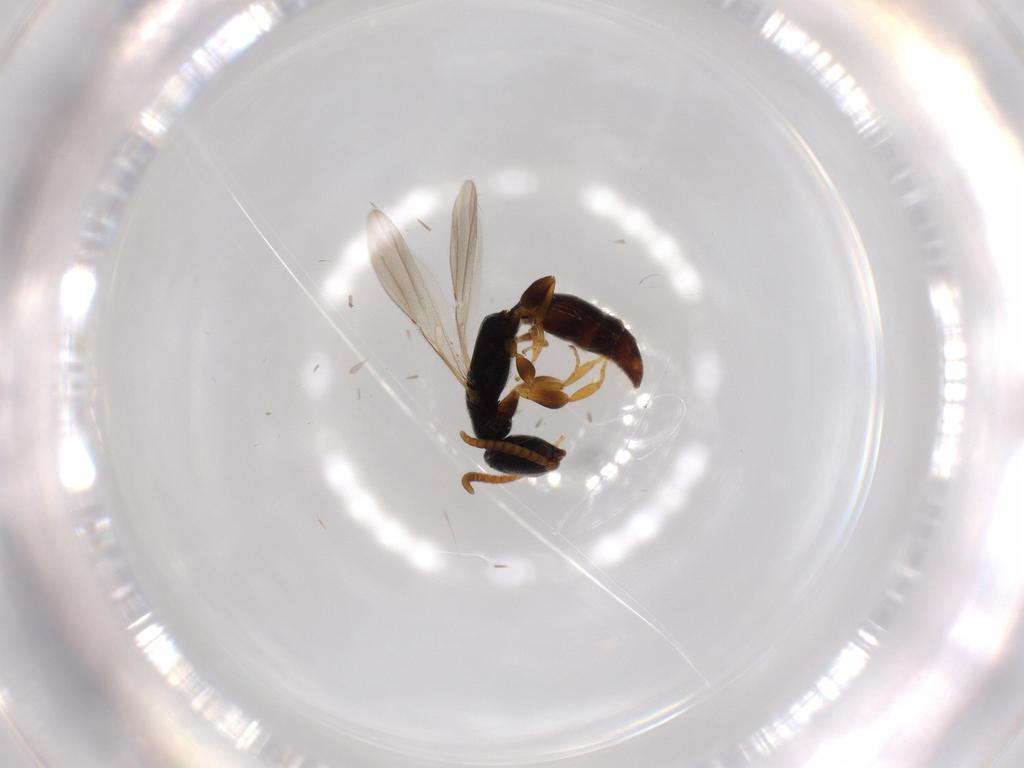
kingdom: Animalia
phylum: Arthropoda
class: Insecta
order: Hymenoptera
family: Bethylidae
